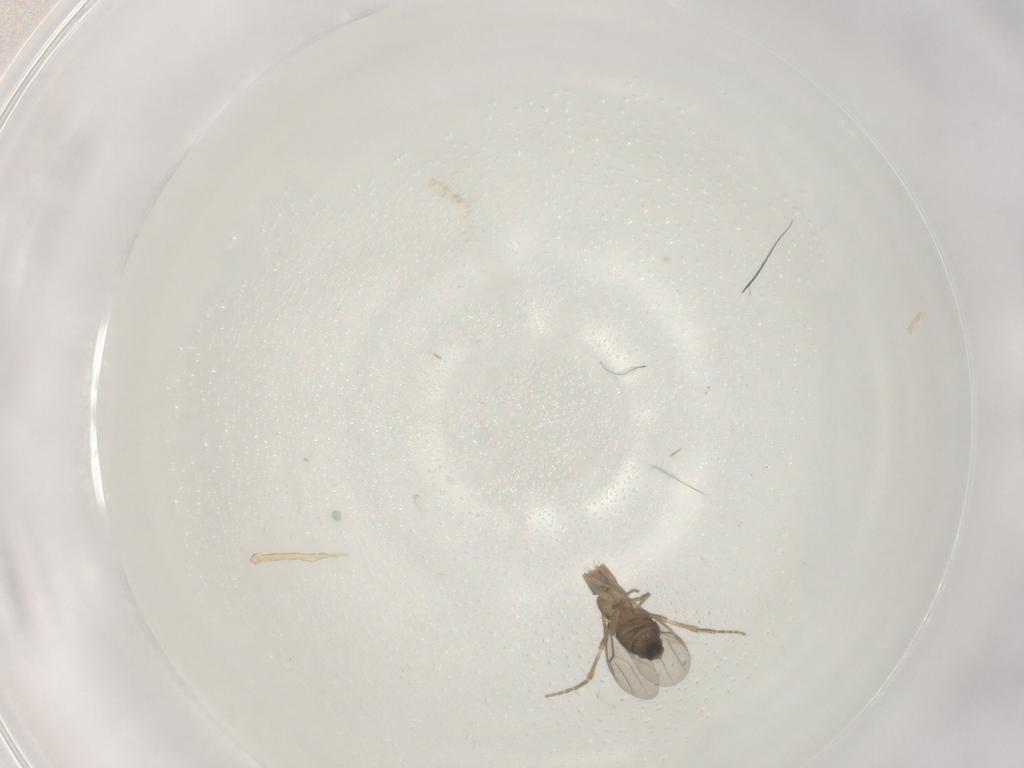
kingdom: Animalia
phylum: Arthropoda
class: Insecta
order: Diptera
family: Phoridae
